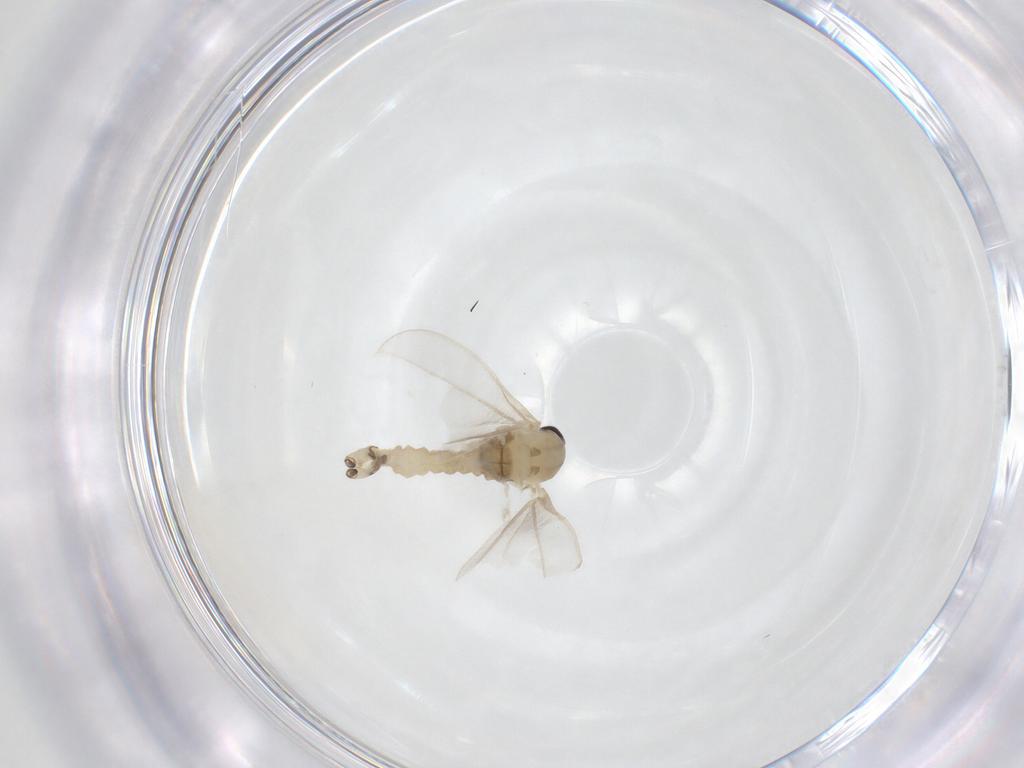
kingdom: Animalia
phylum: Arthropoda
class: Insecta
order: Diptera
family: Cecidomyiidae
